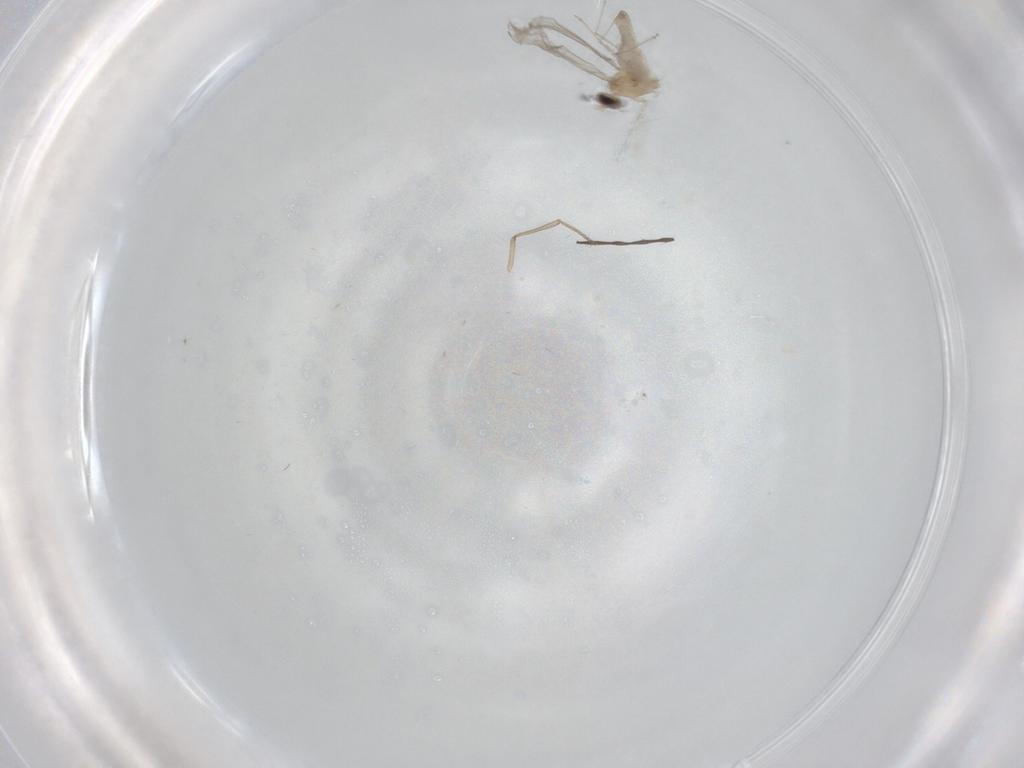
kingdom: Animalia
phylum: Arthropoda
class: Insecta
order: Diptera
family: Cecidomyiidae
